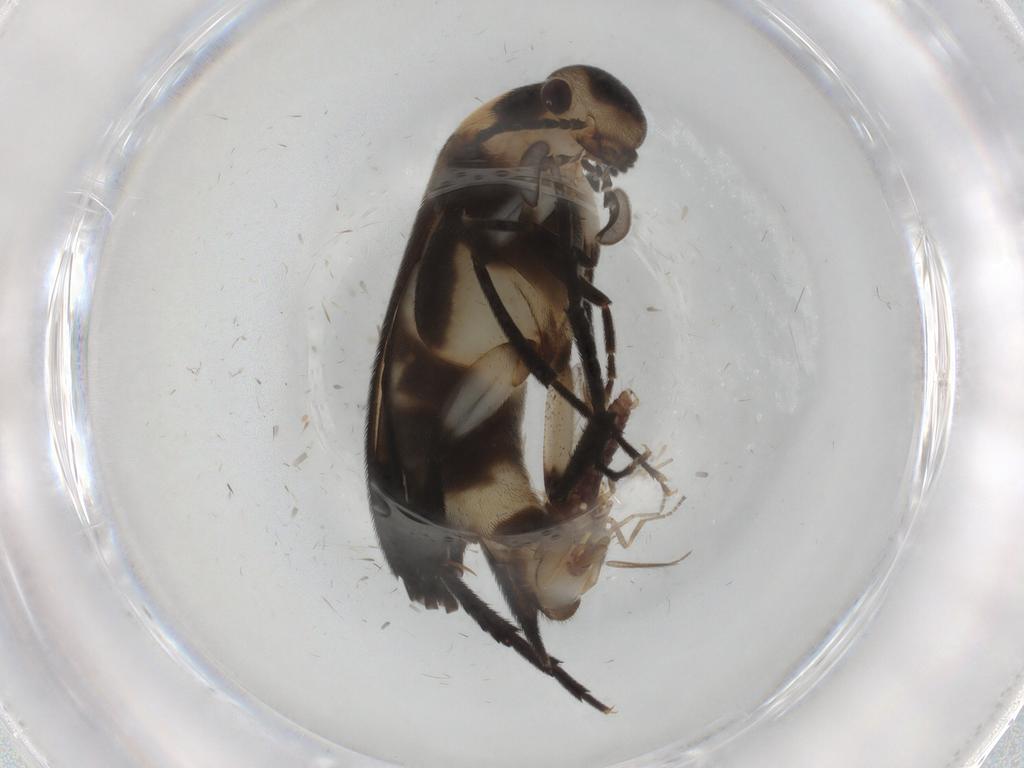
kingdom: Animalia
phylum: Arthropoda
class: Insecta
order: Coleoptera
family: Mordellidae
